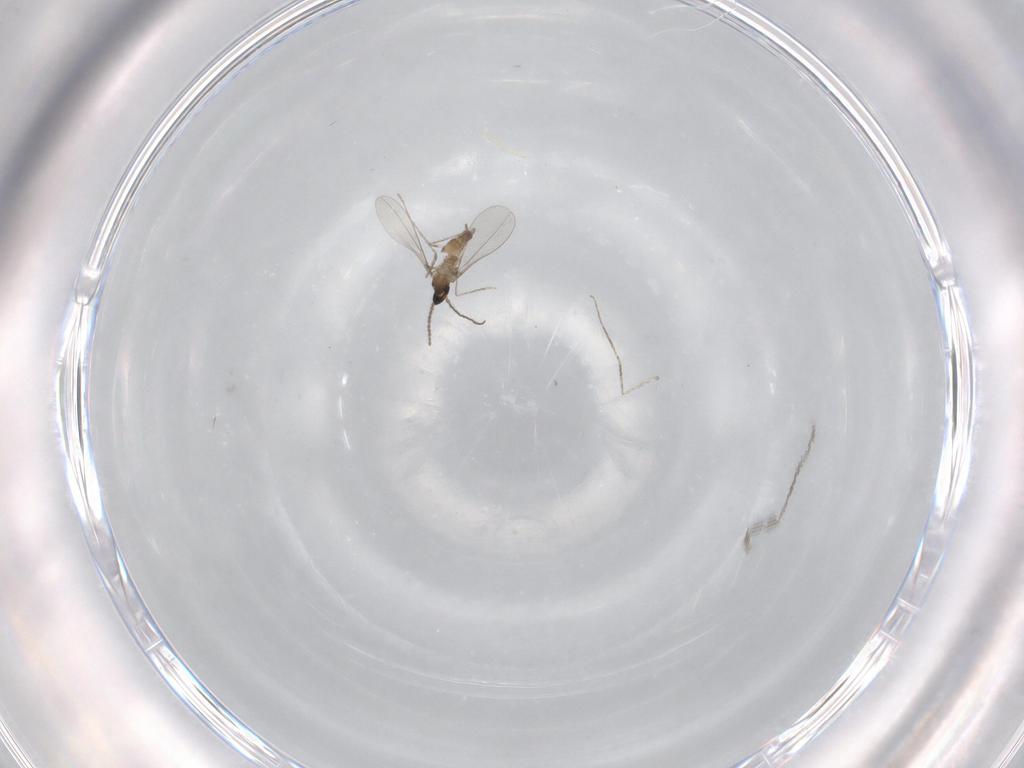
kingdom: Animalia
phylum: Arthropoda
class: Insecta
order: Diptera
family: Cecidomyiidae
